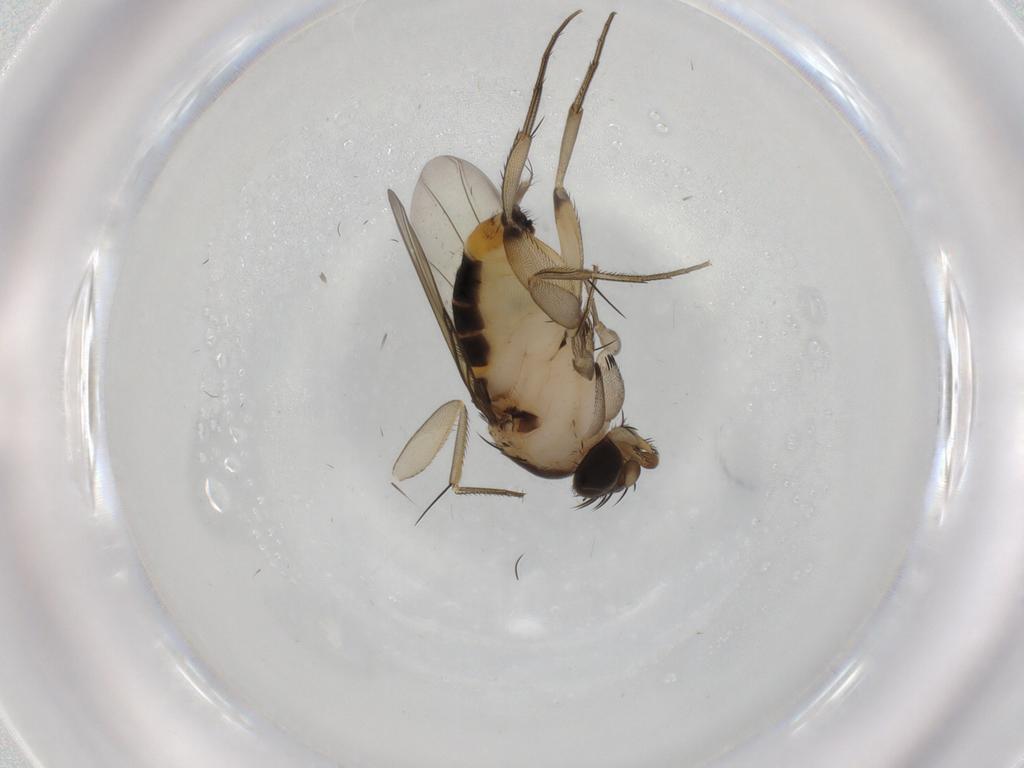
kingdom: Animalia
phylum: Arthropoda
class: Insecta
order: Diptera
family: Phoridae
